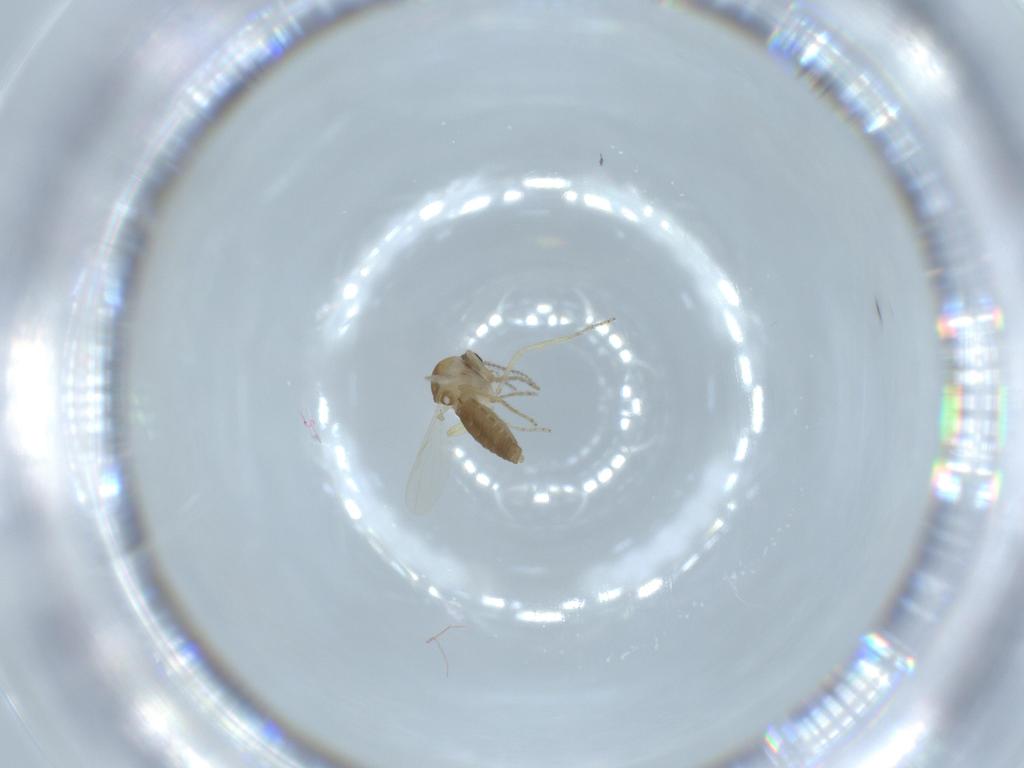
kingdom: Animalia
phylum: Arthropoda
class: Insecta
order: Diptera
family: Ceratopogonidae
